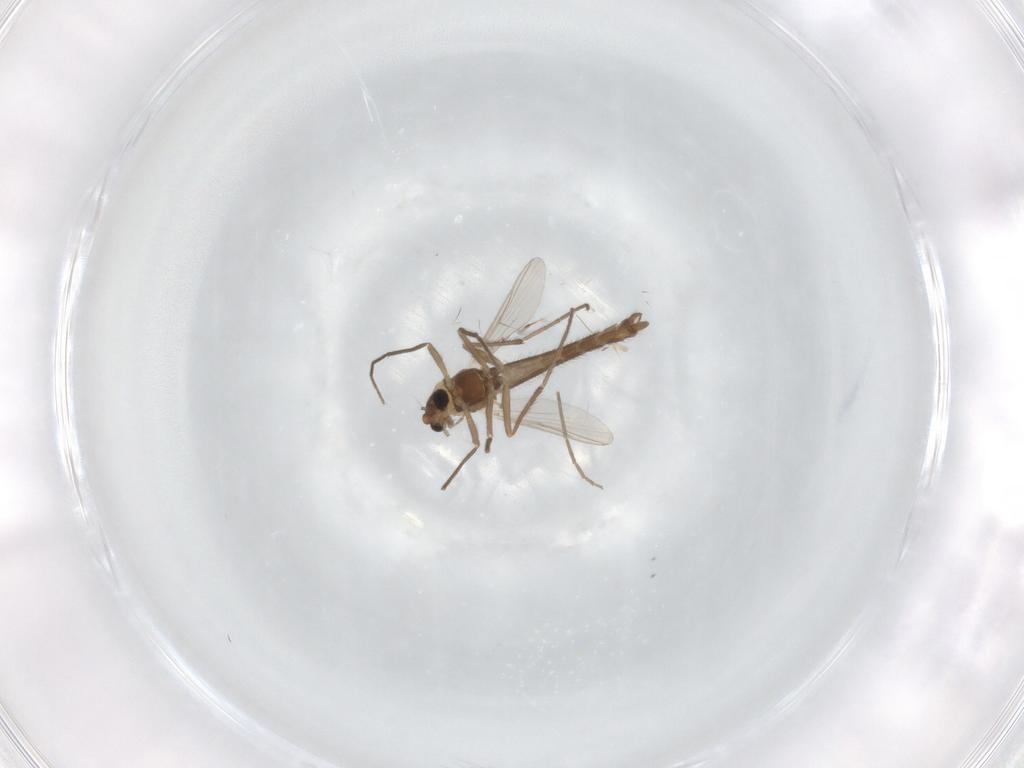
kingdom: Animalia
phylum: Arthropoda
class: Insecta
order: Diptera
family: Chironomidae
